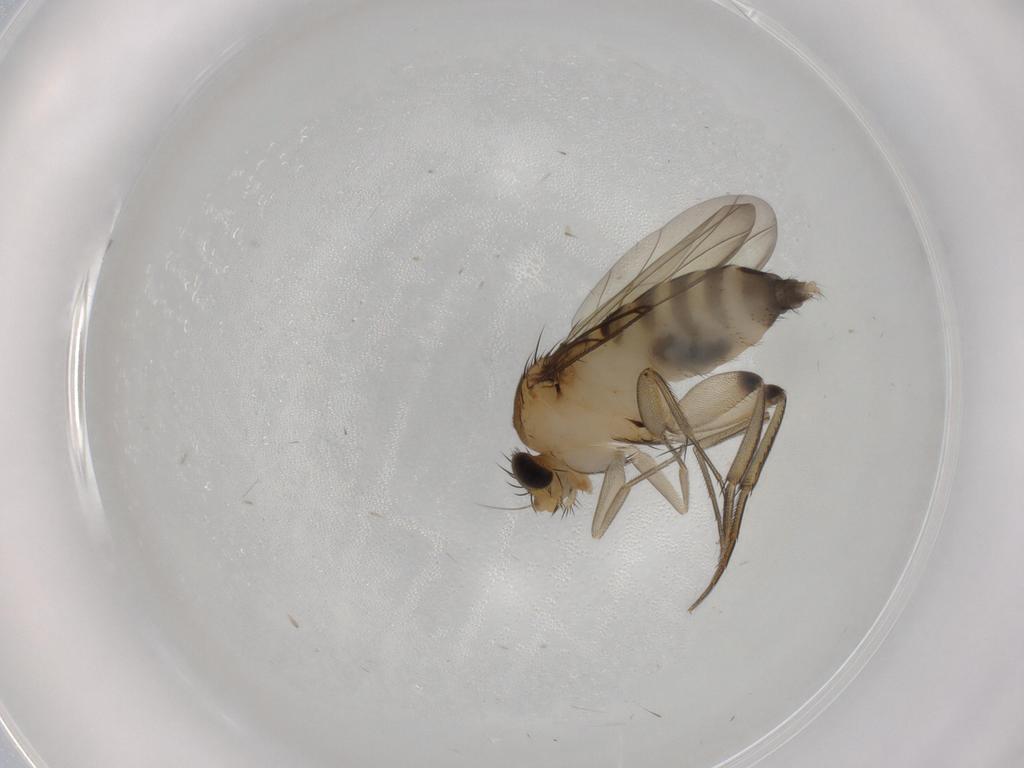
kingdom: Animalia
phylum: Arthropoda
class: Insecta
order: Diptera
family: Phoridae
